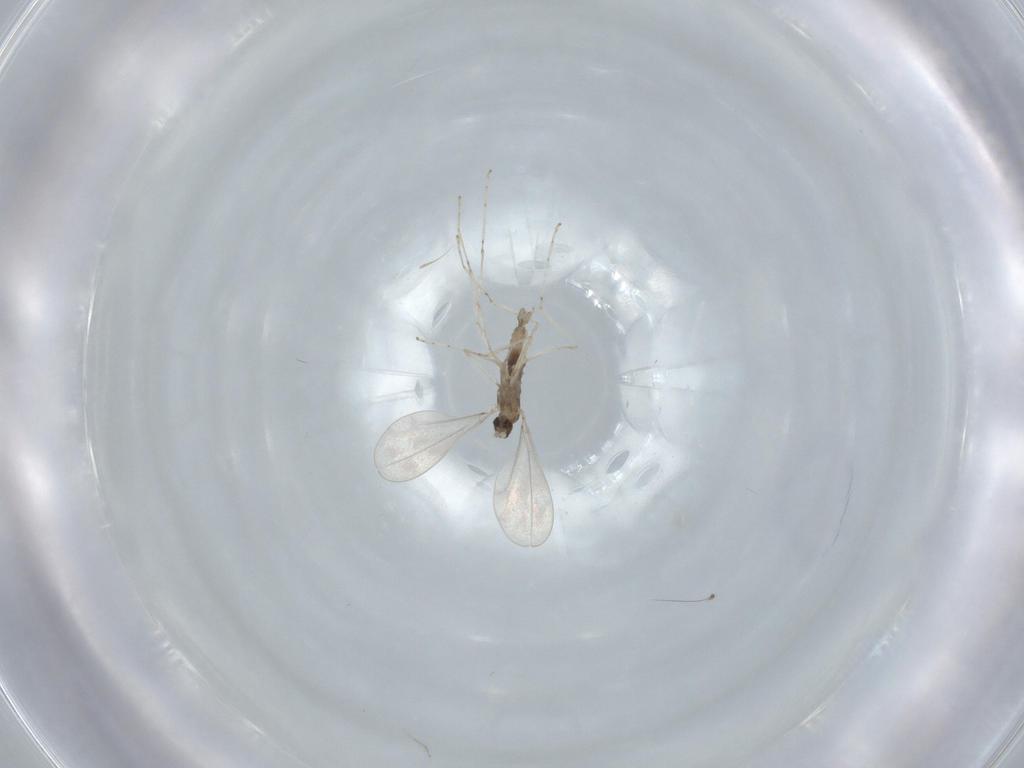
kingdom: Animalia
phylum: Arthropoda
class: Insecta
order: Diptera
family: Cecidomyiidae
